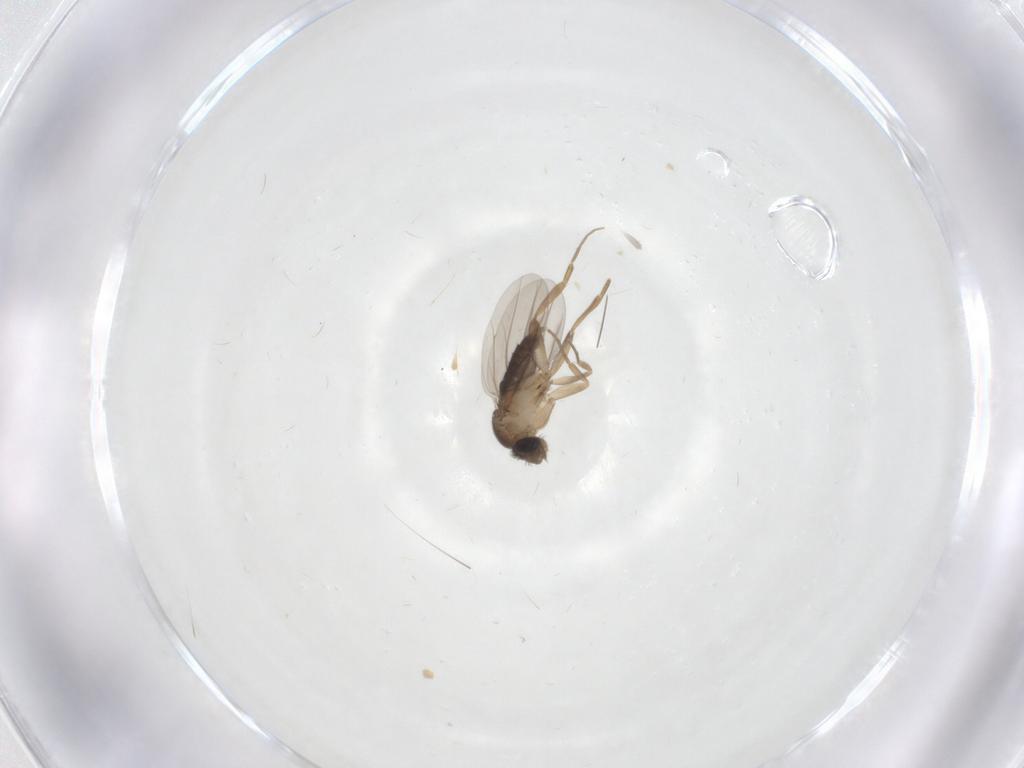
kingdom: Animalia
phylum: Arthropoda
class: Insecta
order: Diptera
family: Phoridae
